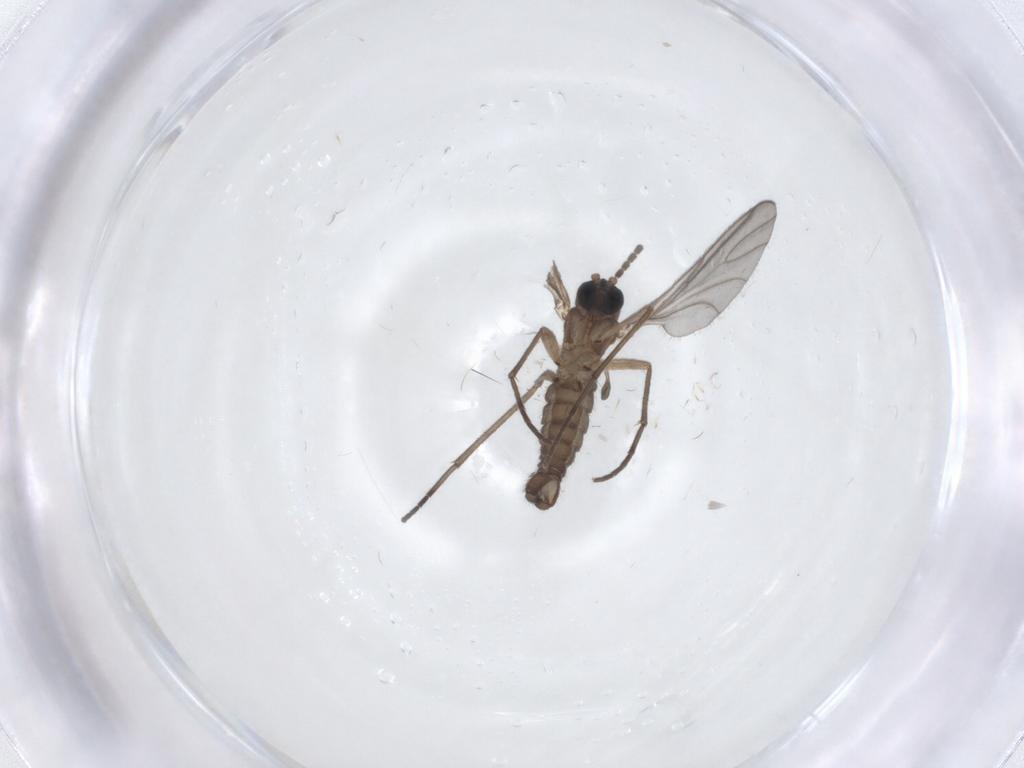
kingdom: Animalia
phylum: Arthropoda
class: Insecta
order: Diptera
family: Sciaridae
